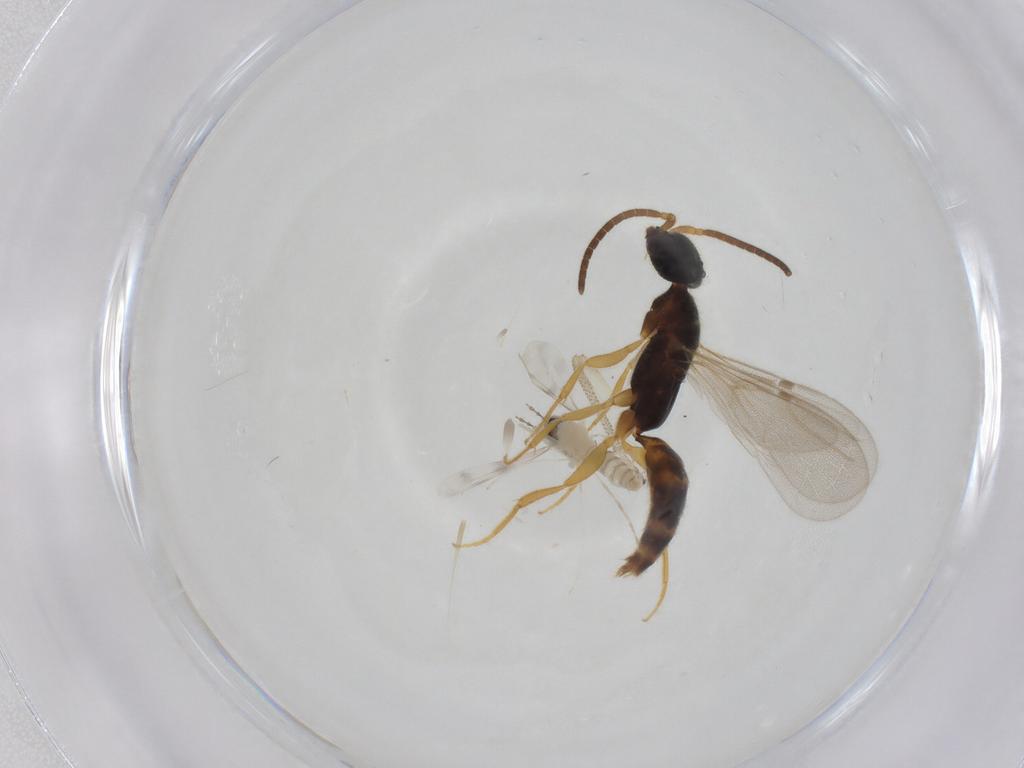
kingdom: Animalia
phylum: Arthropoda
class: Insecta
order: Diptera
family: Cecidomyiidae
